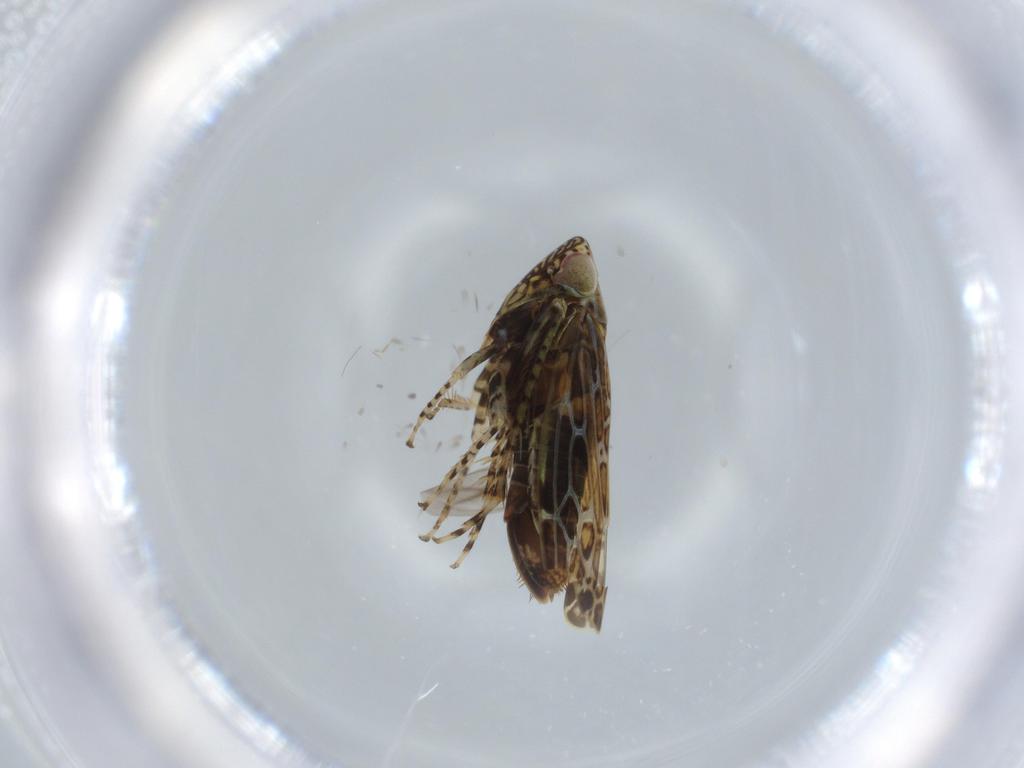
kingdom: Animalia
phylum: Arthropoda
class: Insecta
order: Hemiptera
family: Cicadellidae
